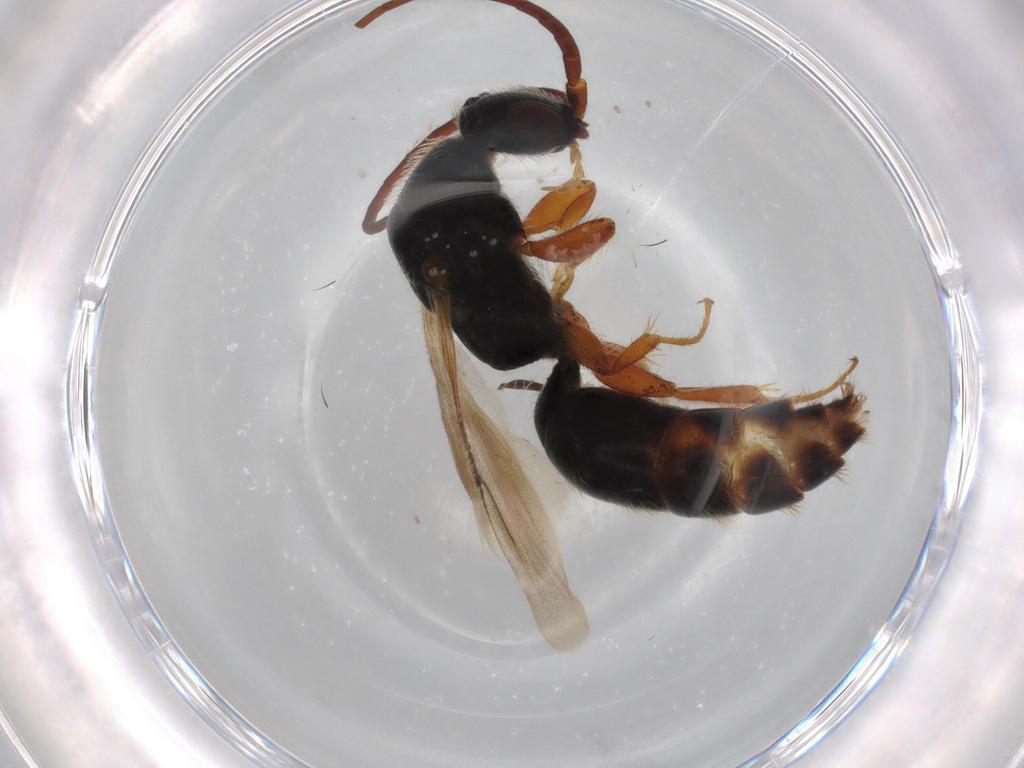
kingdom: Animalia
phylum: Arthropoda
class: Insecta
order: Hymenoptera
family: Bethylidae
